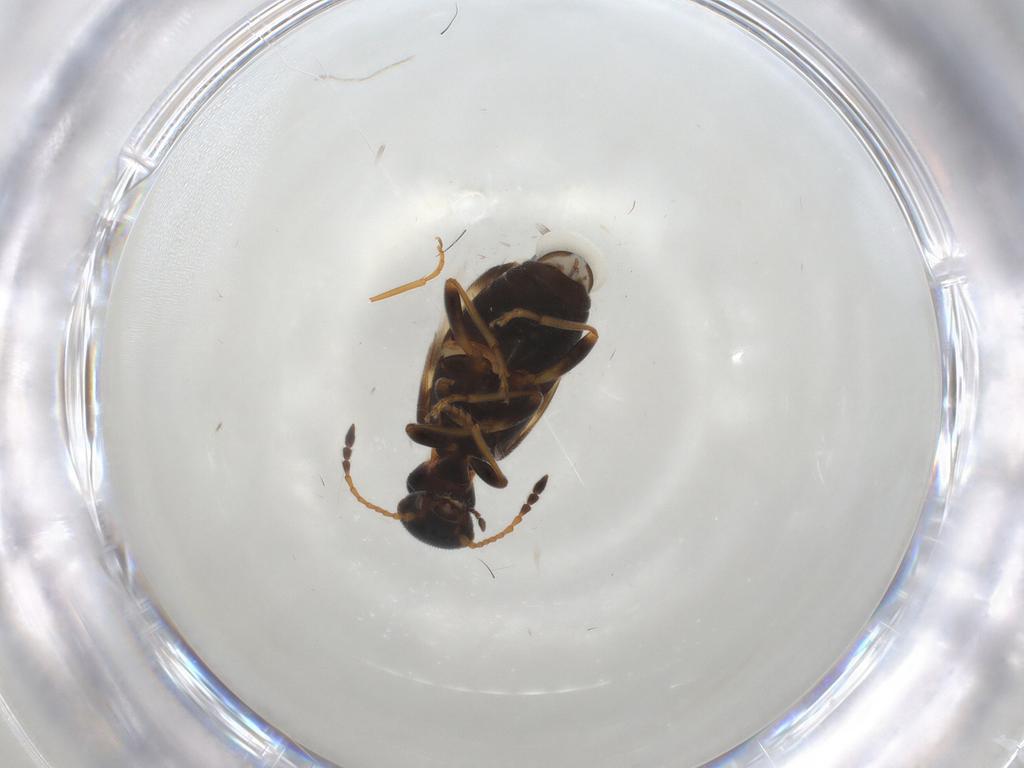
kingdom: Animalia
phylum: Arthropoda
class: Insecta
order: Coleoptera
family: Anthicidae
